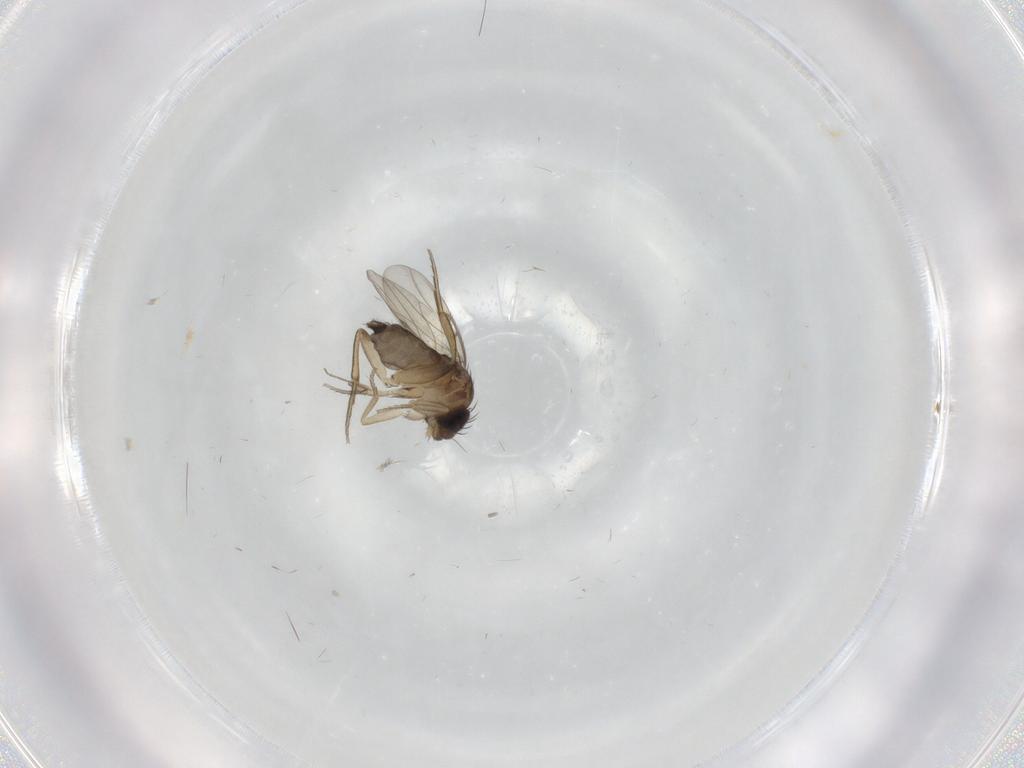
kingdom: Animalia
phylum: Arthropoda
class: Insecta
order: Diptera
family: Phoridae
